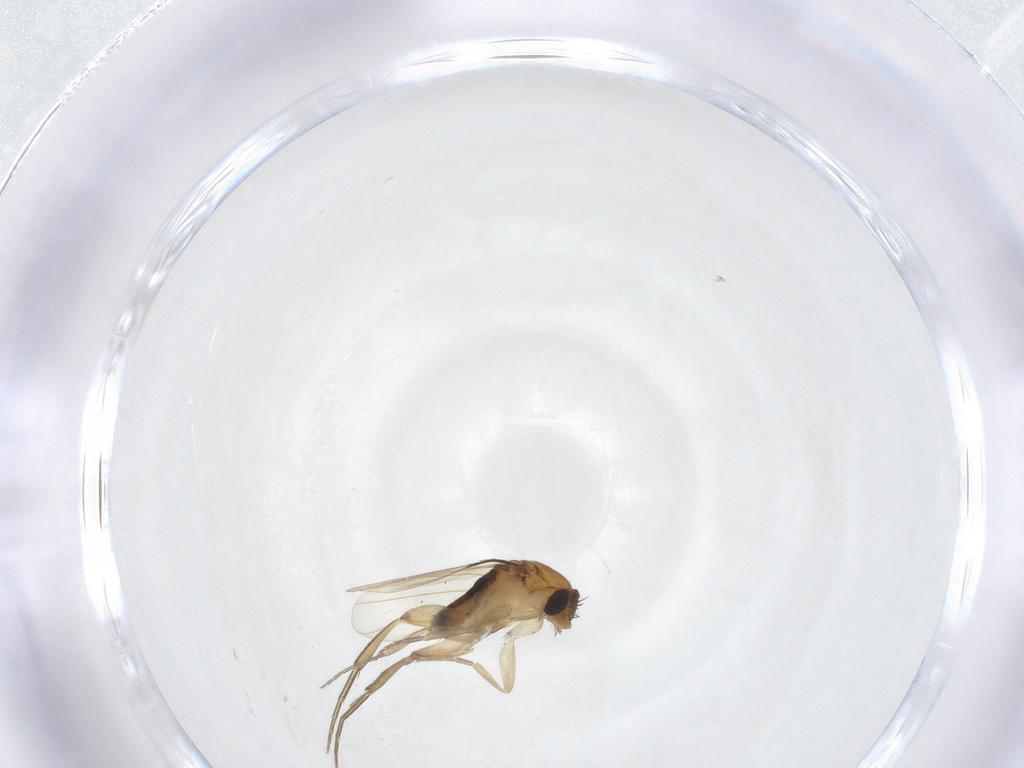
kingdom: Animalia
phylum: Arthropoda
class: Insecta
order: Diptera
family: Phoridae
